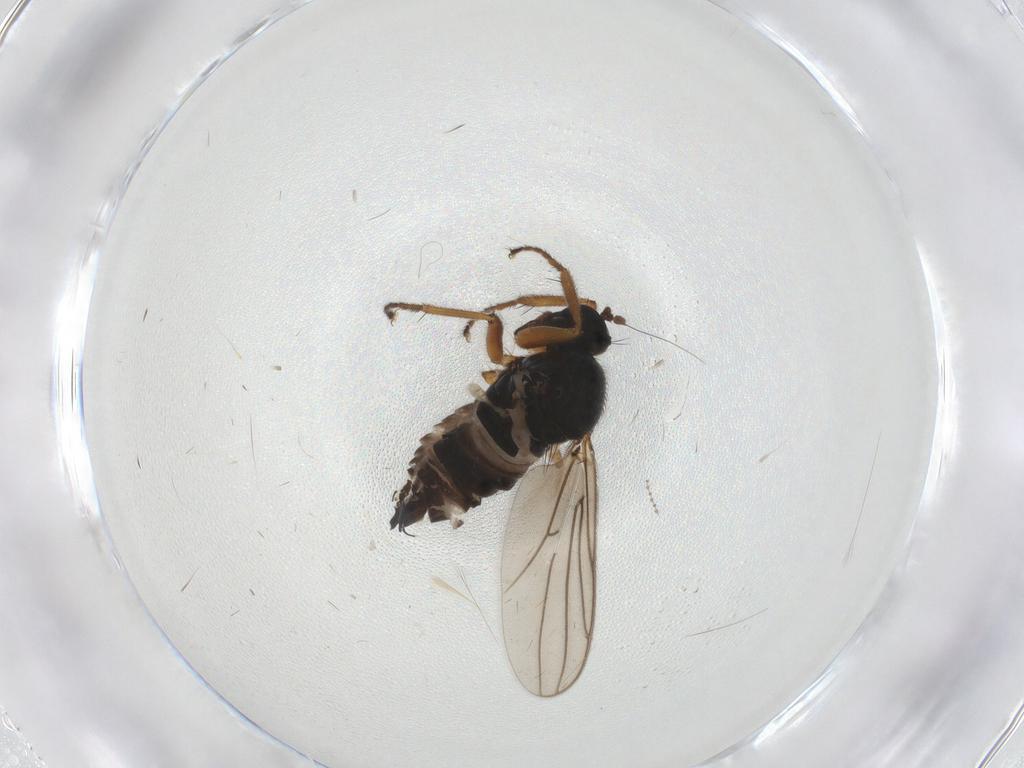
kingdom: Animalia
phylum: Arthropoda
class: Insecta
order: Diptera
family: Hybotidae
